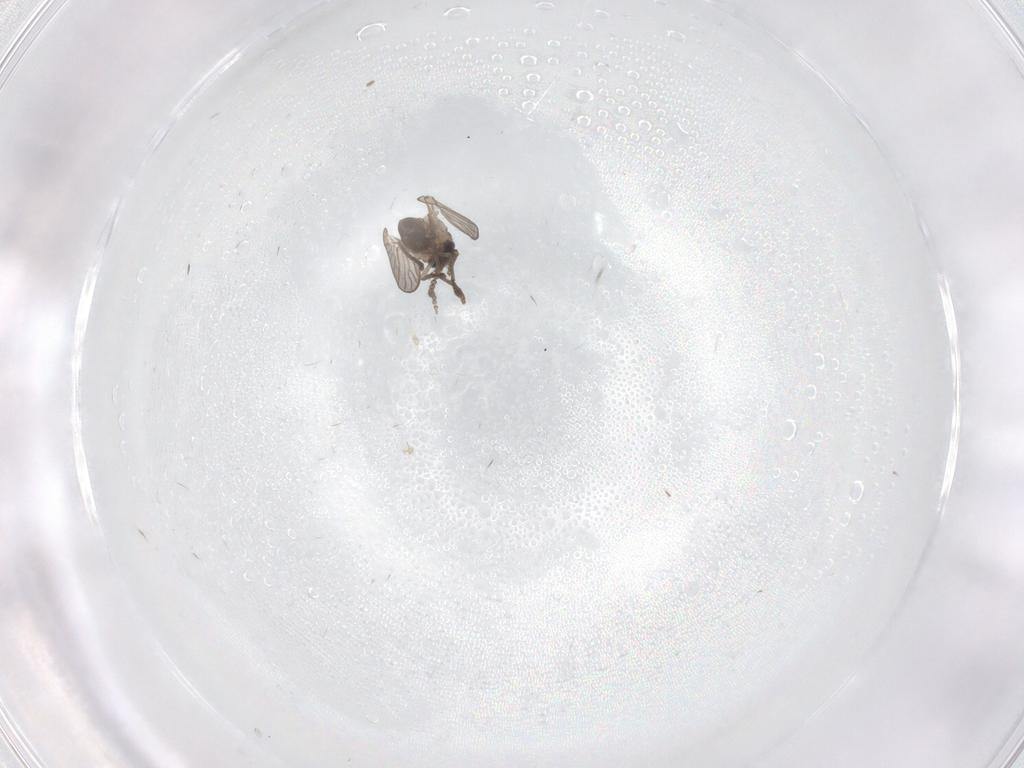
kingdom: Animalia
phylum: Arthropoda
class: Insecta
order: Diptera
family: Psychodidae
